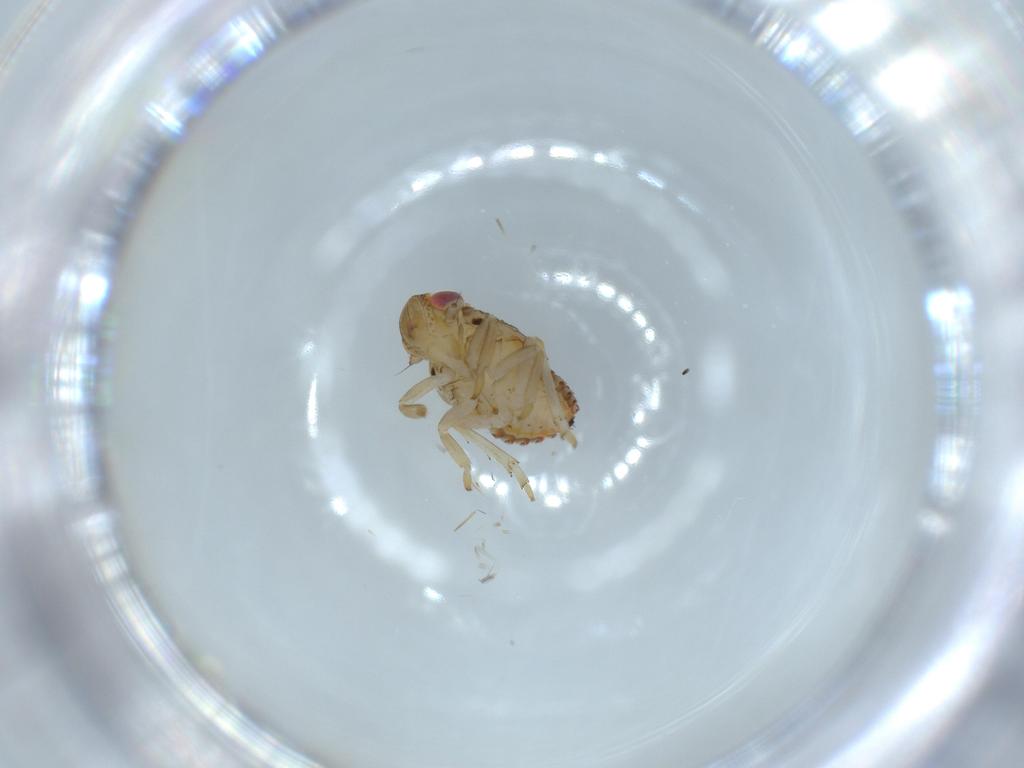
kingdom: Animalia
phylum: Arthropoda
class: Insecta
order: Hemiptera
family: Issidae
